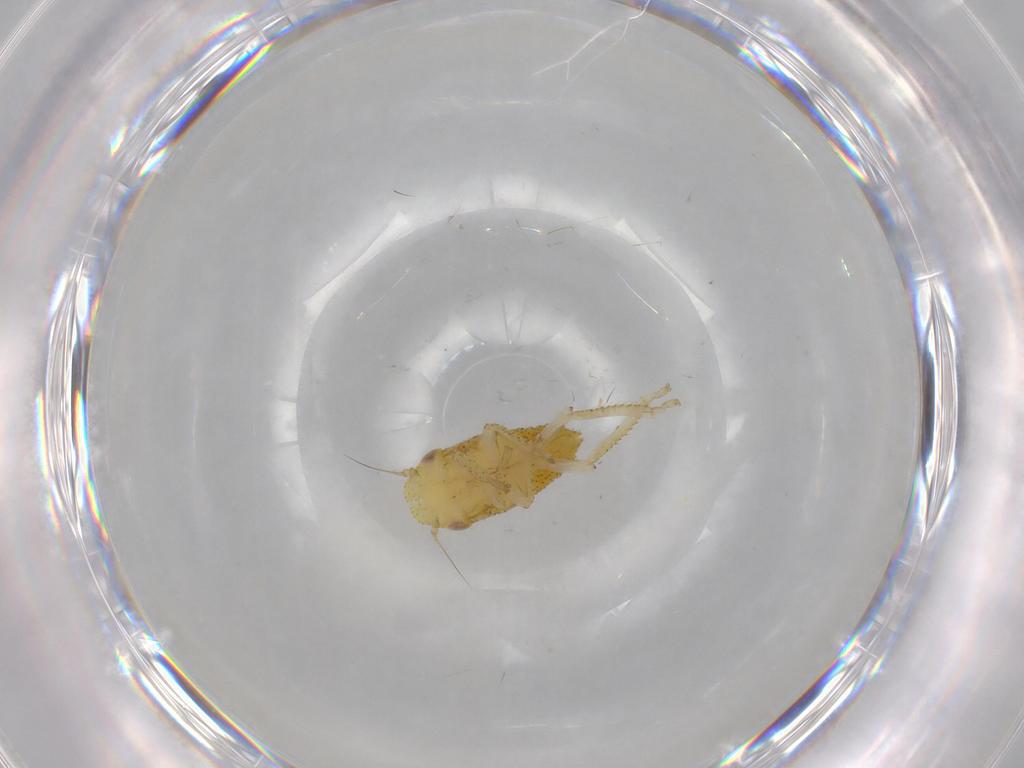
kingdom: Animalia
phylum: Arthropoda
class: Insecta
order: Hemiptera
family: Cicadellidae
